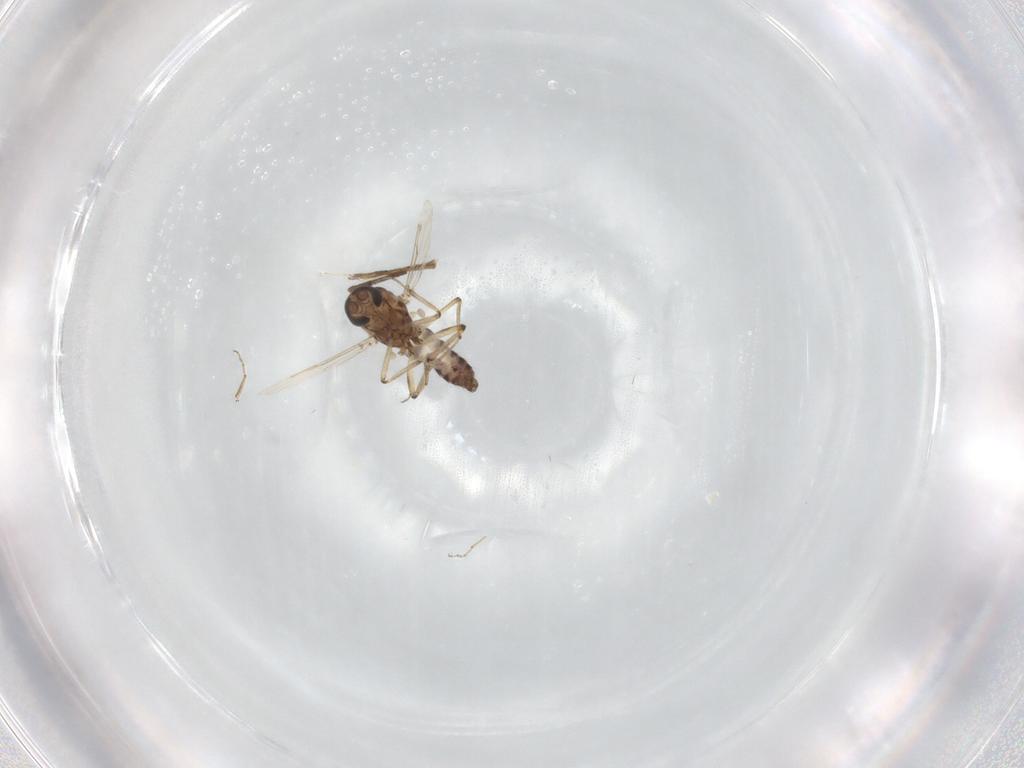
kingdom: Animalia
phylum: Arthropoda
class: Insecta
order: Diptera
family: Ceratopogonidae
